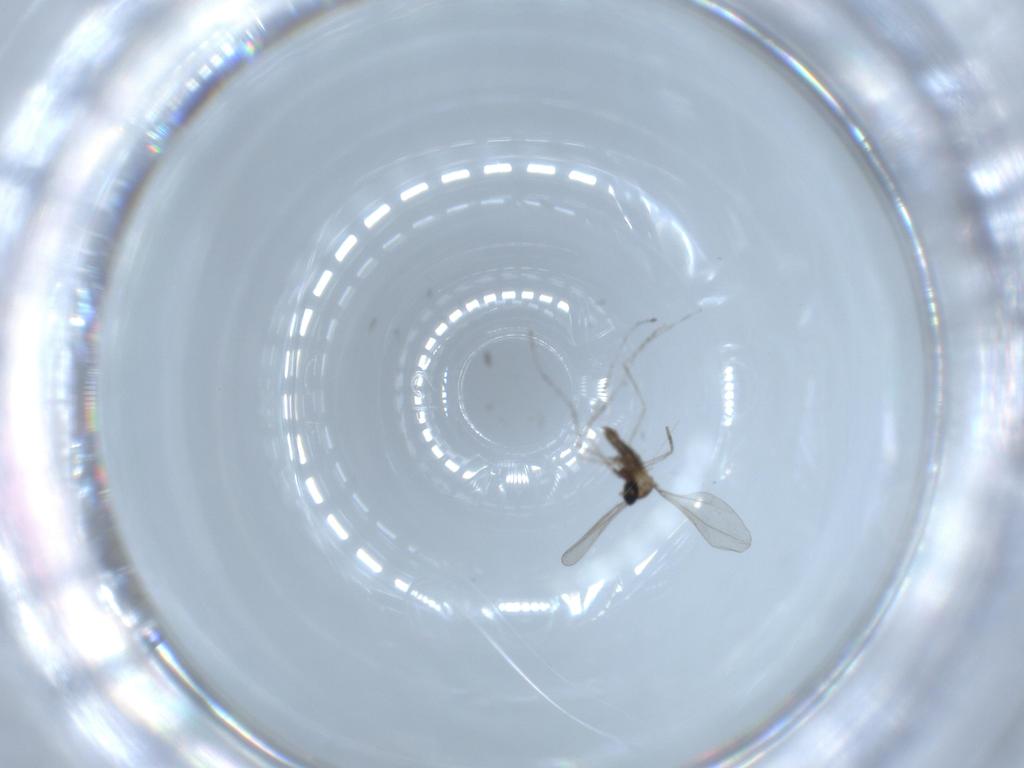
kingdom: Animalia
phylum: Arthropoda
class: Insecta
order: Diptera
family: Cecidomyiidae
